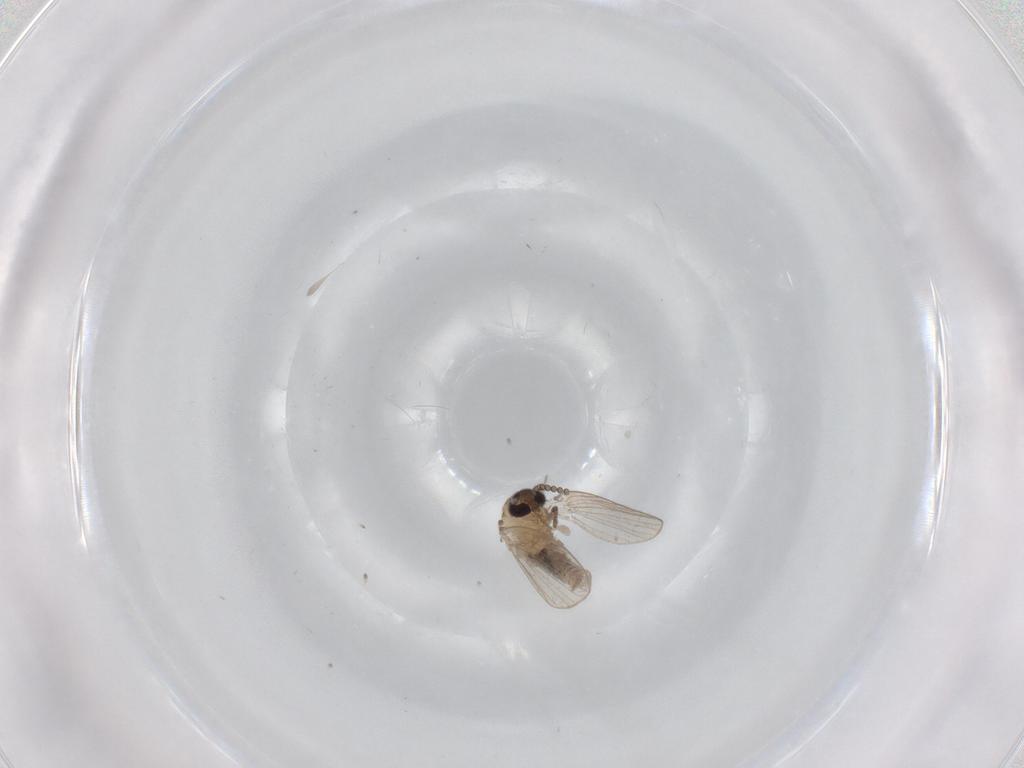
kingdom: Animalia
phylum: Arthropoda
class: Insecta
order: Diptera
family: Psychodidae
